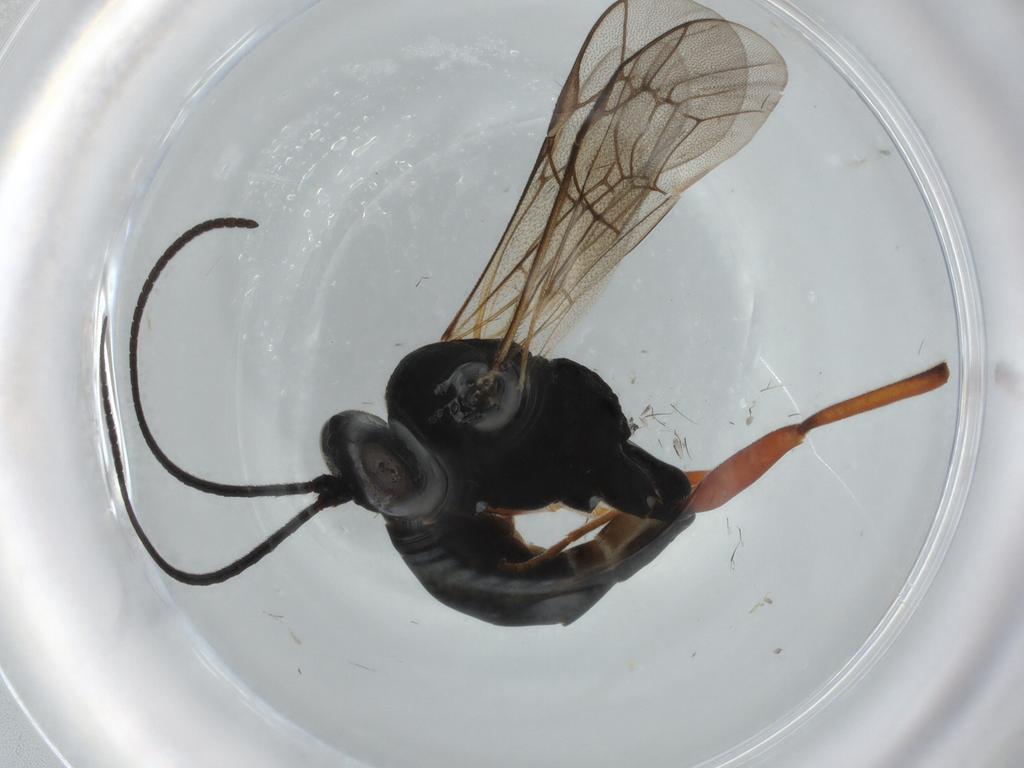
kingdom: Animalia
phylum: Arthropoda
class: Insecta
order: Hymenoptera
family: Ichneumonidae
